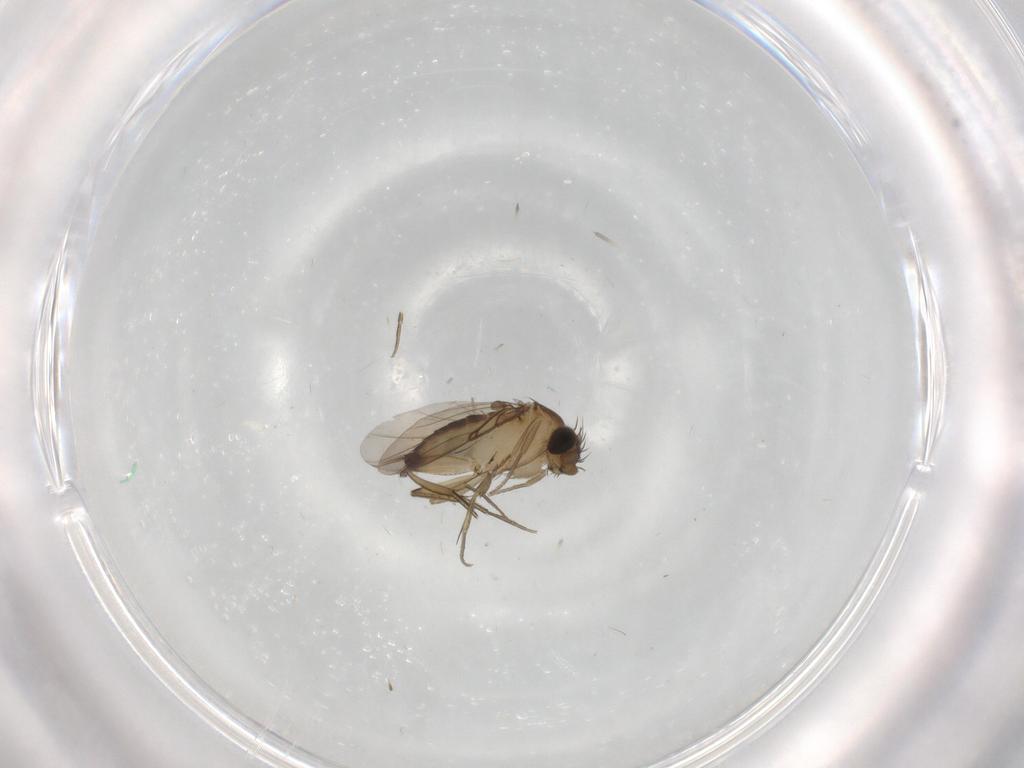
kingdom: Animalia
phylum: Arthropoda
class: Insecta
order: Diptera
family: Phoridae
